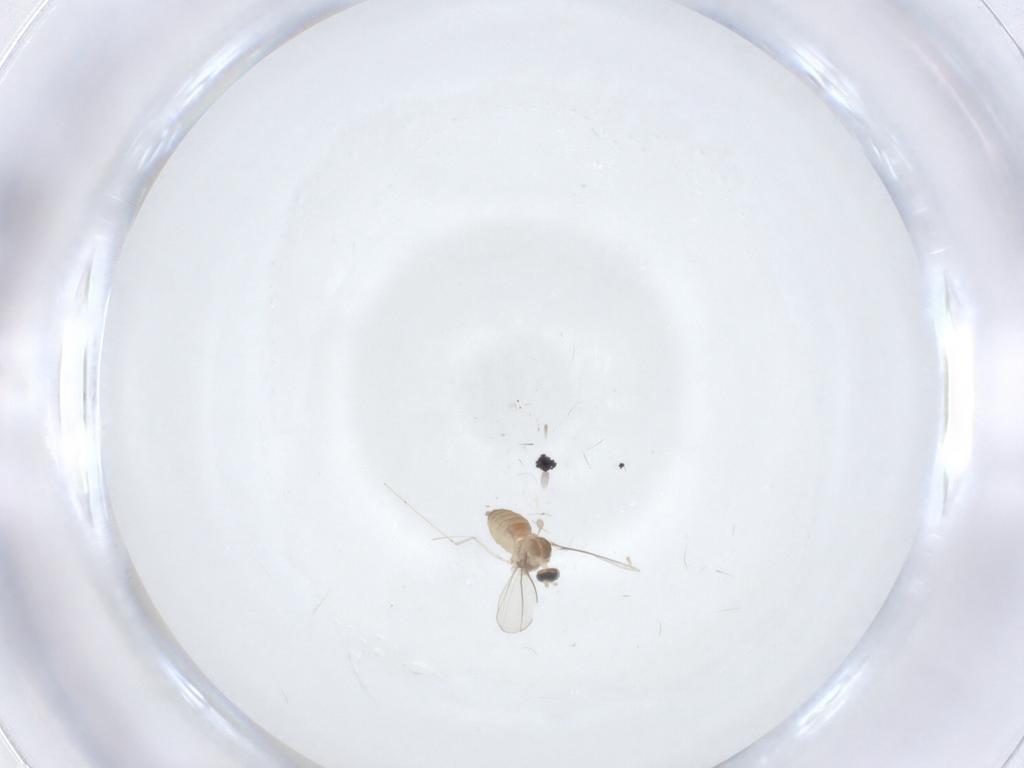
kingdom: Animalia
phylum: Arthropoda
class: Insecta
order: Diptera
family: Cecidomyiidae
